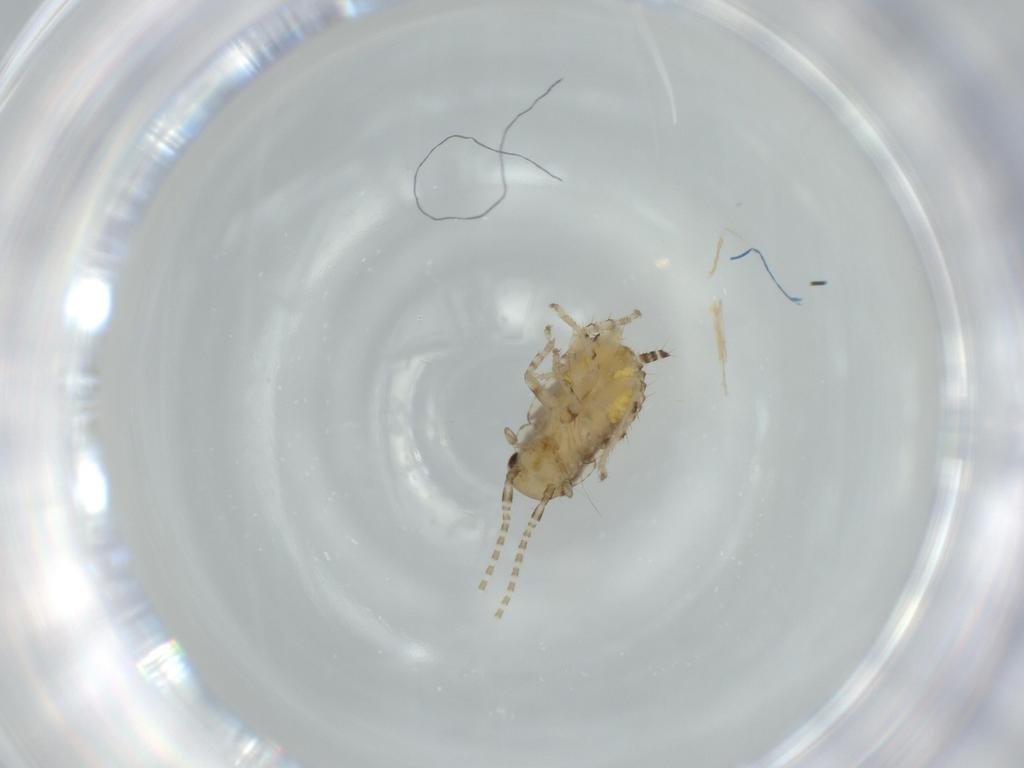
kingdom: Animalia
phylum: Arthropoda
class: Insecta
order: Blattodea
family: Ectobiidae
